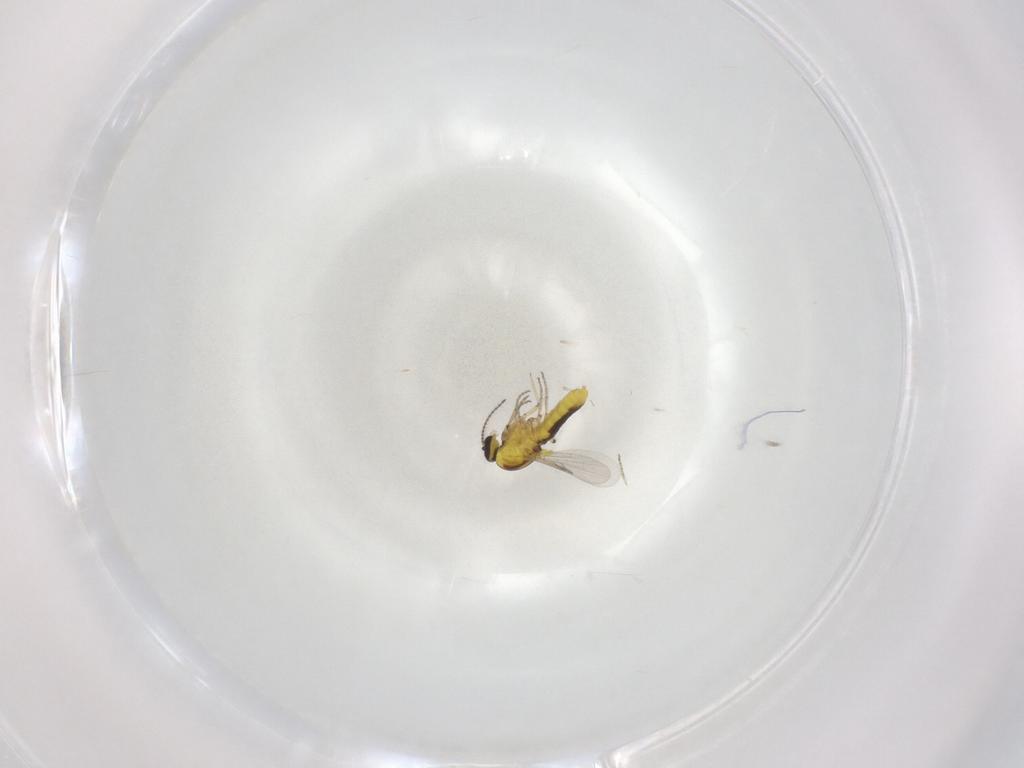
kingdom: Animalia
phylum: Arthropoda
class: Insecta
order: Diptera
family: Ceratopogonidae
